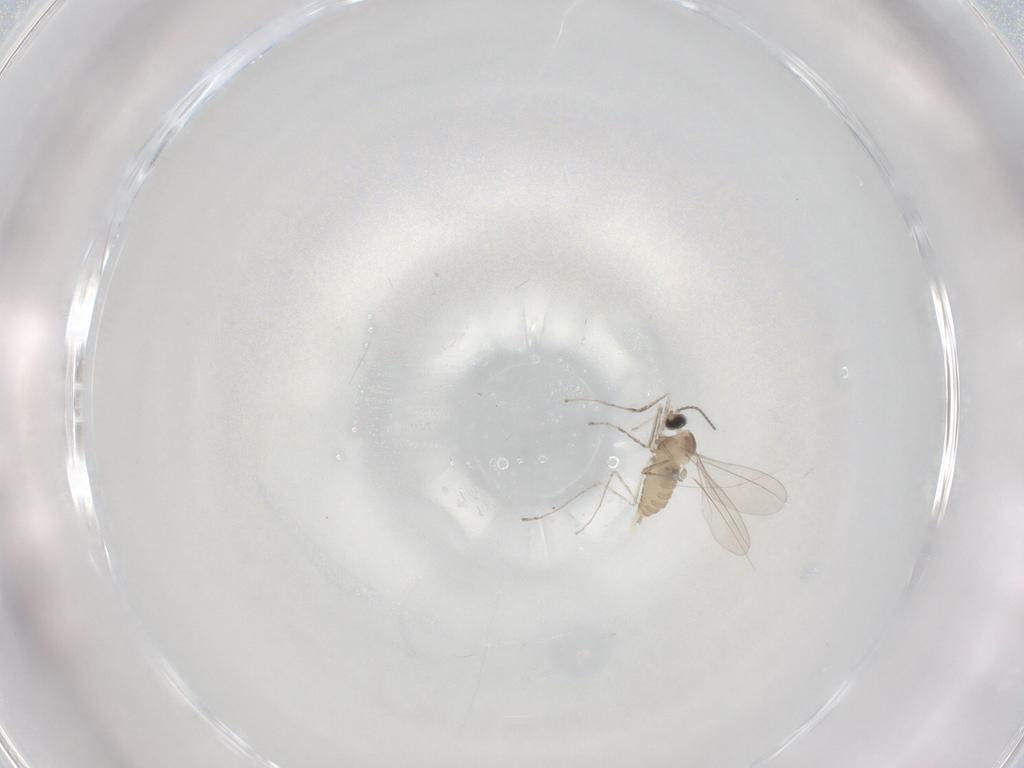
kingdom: Animalia
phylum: Arthropoda
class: Insecta
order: Diptera
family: Cecidomyiidae
